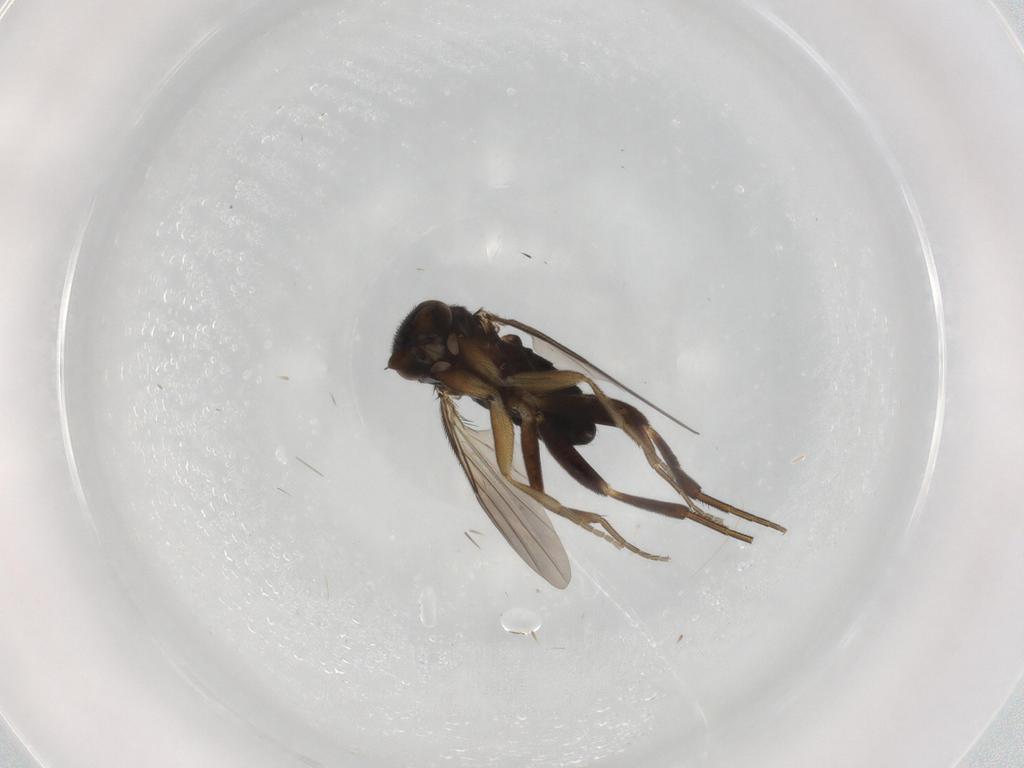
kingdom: Animalia
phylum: Arthropoda
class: Insecta
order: Diptera
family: Phoridae
